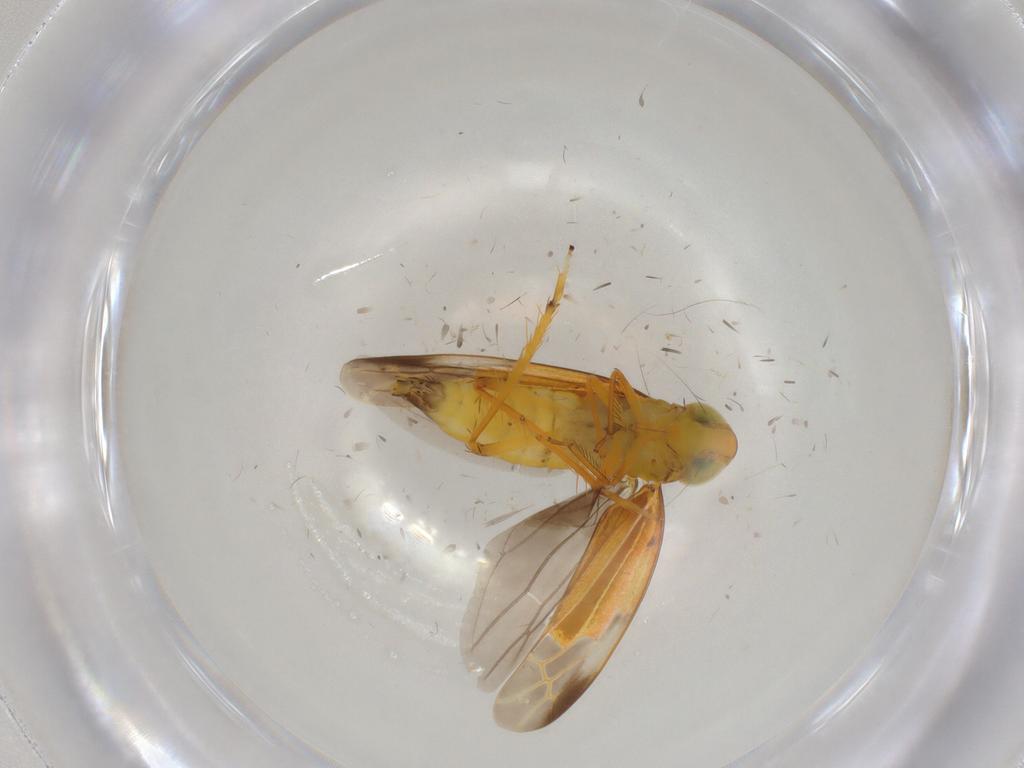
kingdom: Animalia
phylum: Arthropoda
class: Insecta
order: Hemiptera
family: Cicadellidae
